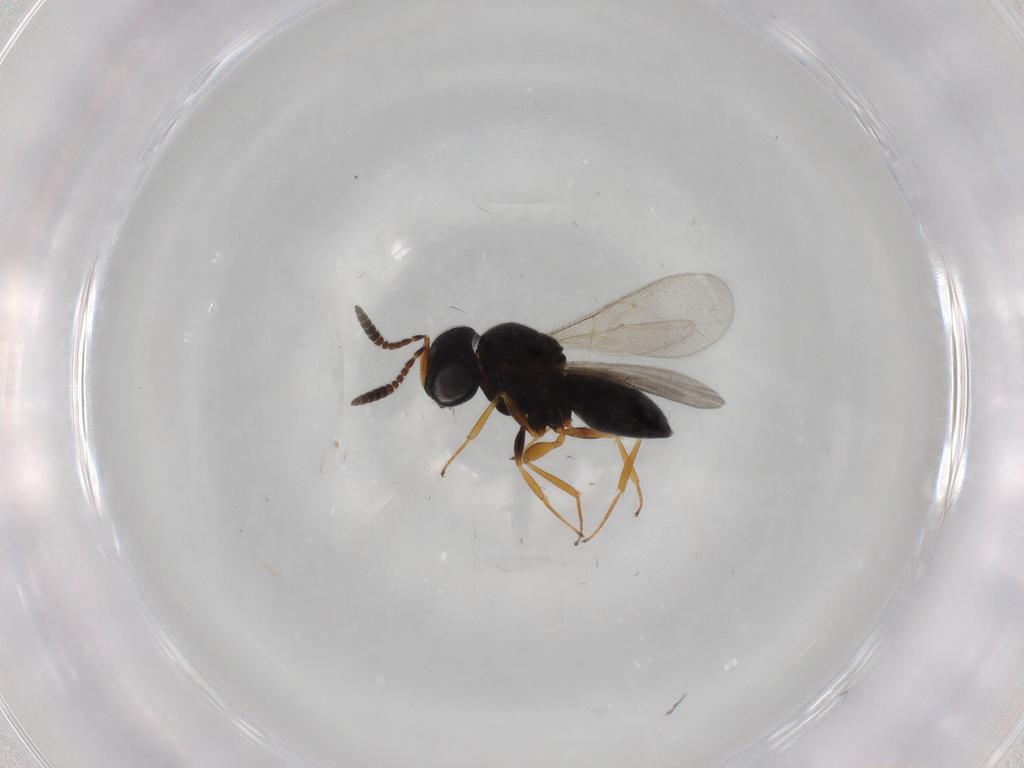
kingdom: Animalia
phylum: Arthropoda
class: Insecta
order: Hymenoptera
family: Scelionidae
